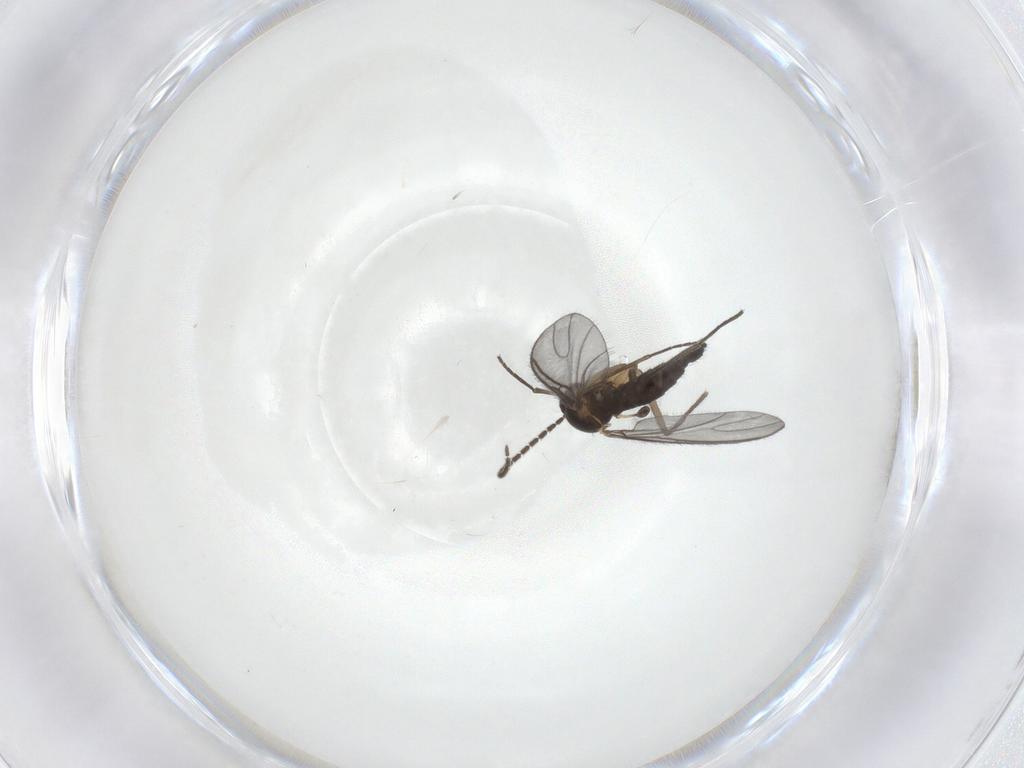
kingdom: Animalia
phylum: Arthropoda
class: Insecta
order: Diptera
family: Sciaridae
